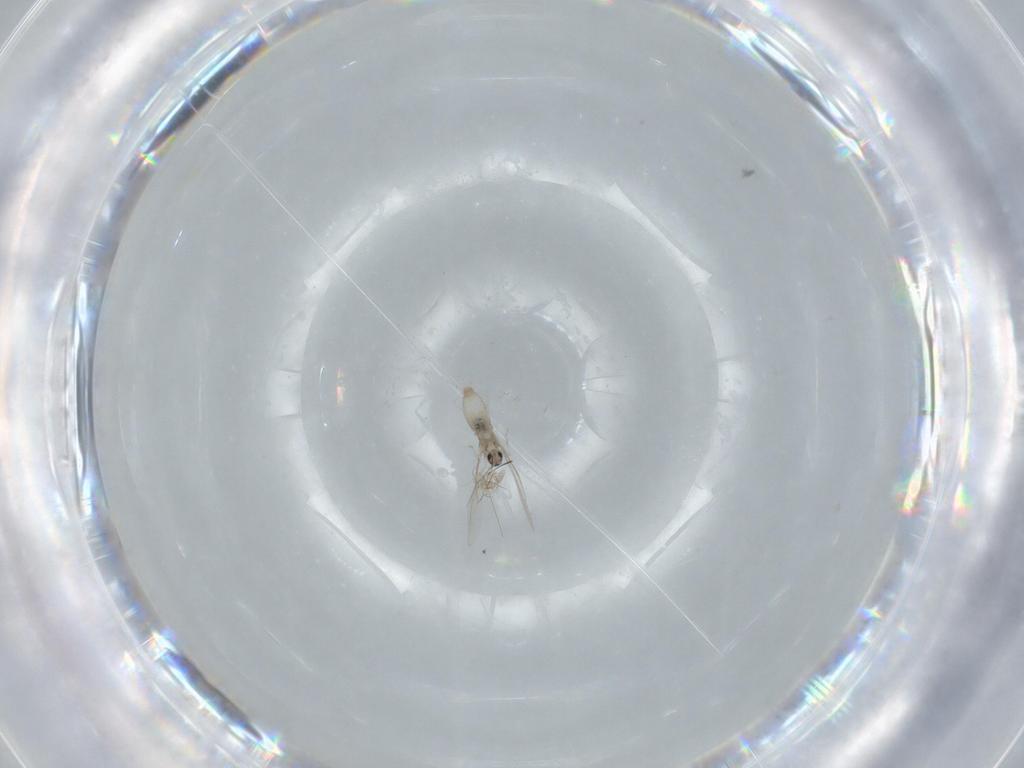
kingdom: Animalia
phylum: Arthropoda
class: Insecta
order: Diptera
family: Cecidomyiidae
